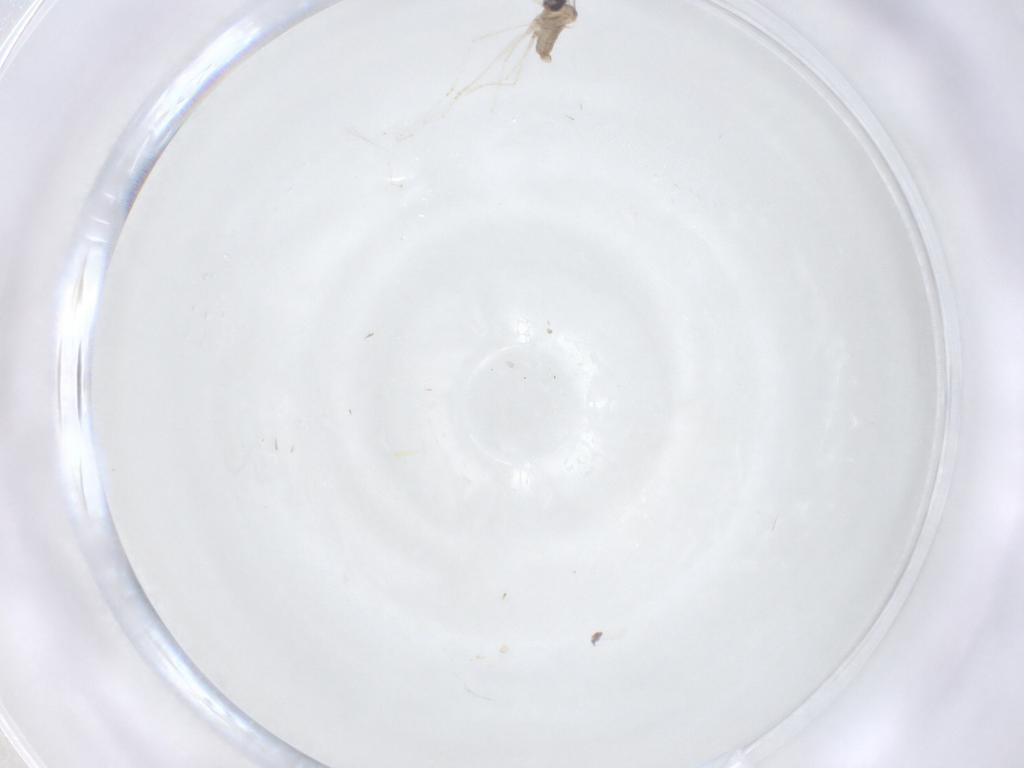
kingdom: Animalia
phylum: Arthropoda
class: Insecta
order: Diptera
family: Cecidomyiidae
